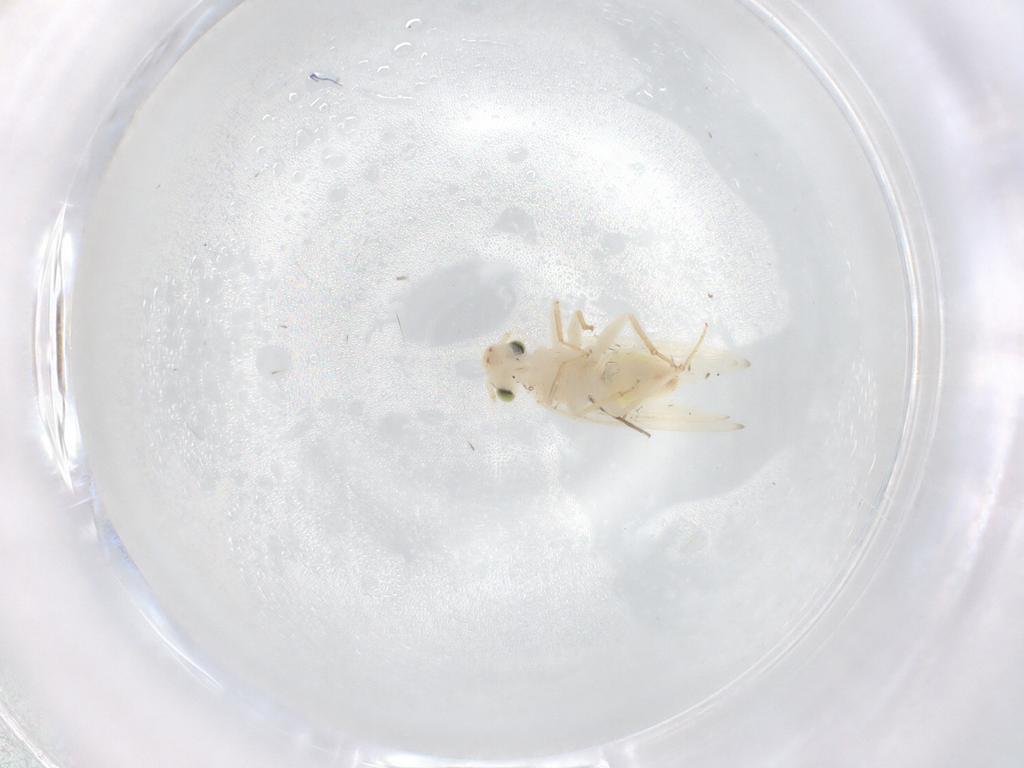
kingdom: Animalia
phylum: Arthropoda
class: Insecta
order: Psocodea
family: Lepidopsocidae
